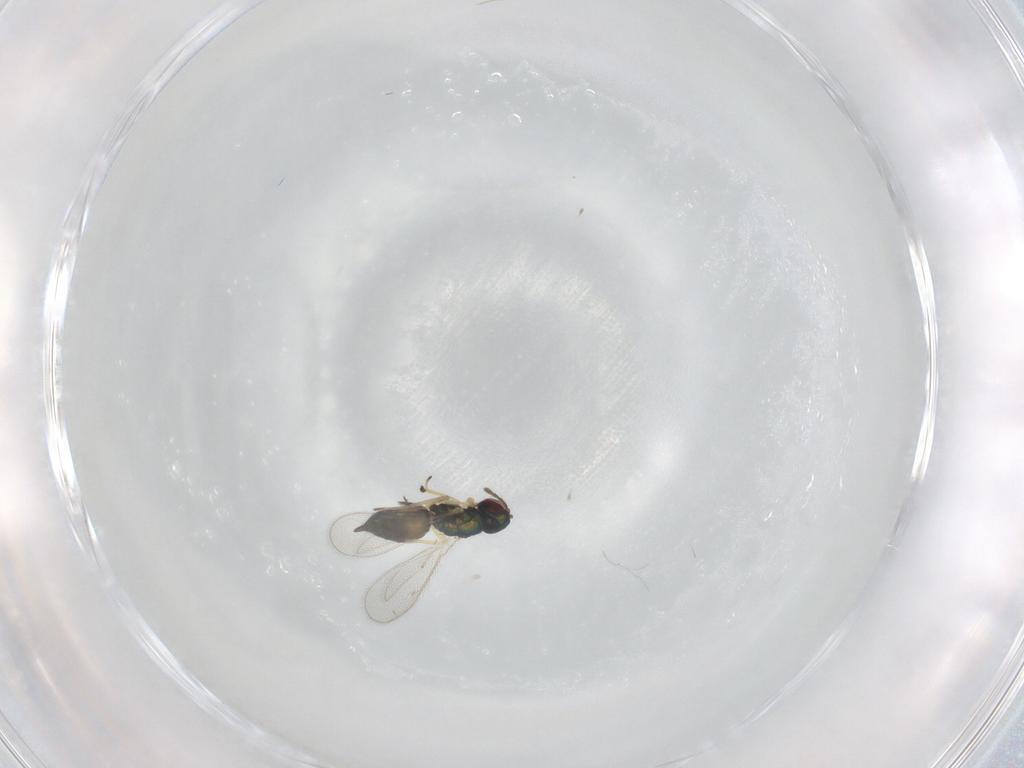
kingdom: Animalia
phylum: Arthropoda
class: Insecta
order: Hymenoptera
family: Eulophidae
